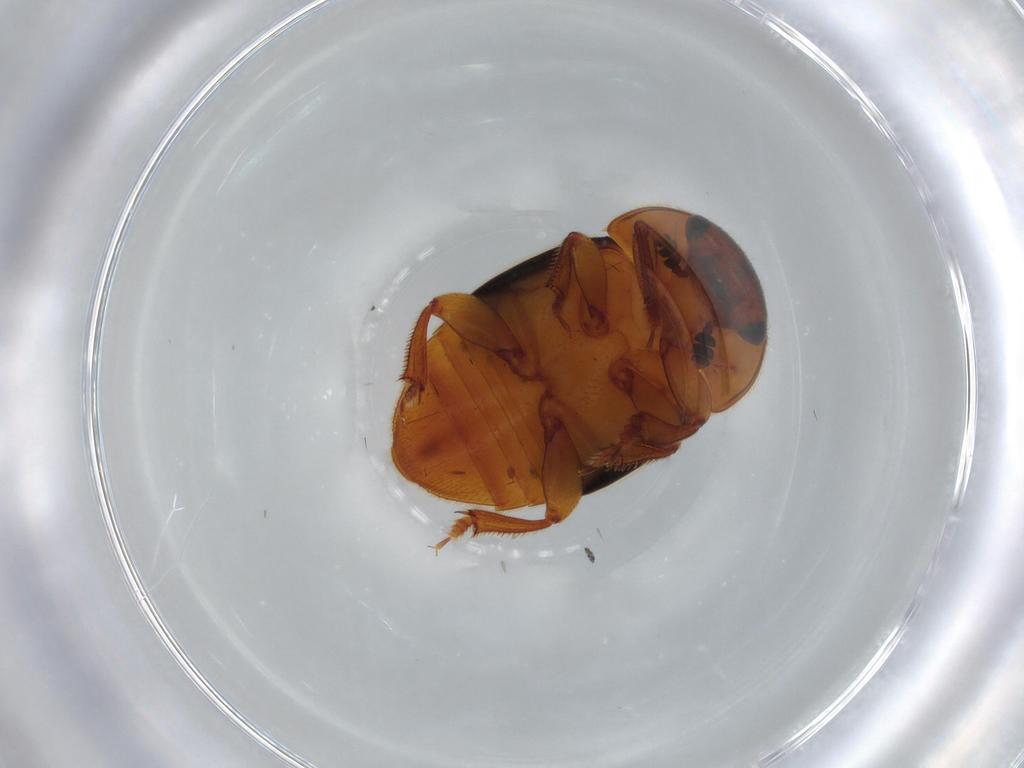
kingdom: Animalia
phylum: Arthropoda
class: Insecta
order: Coleoptera
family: Nitidulidae
